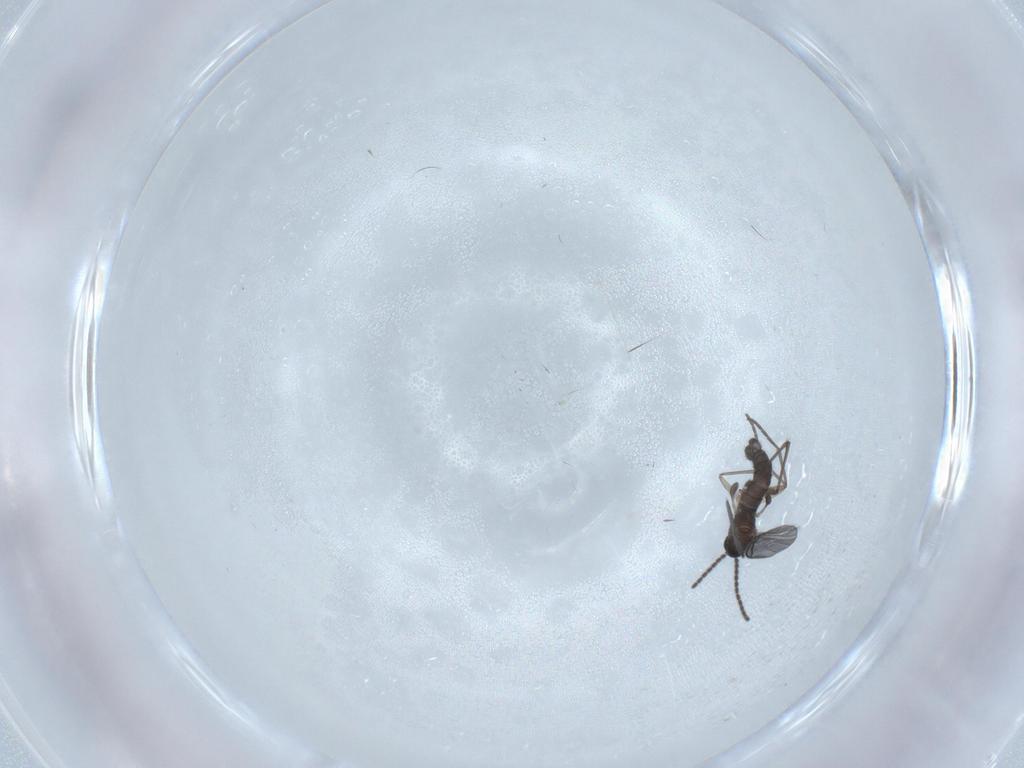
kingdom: Animalia
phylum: Arthropoda
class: Insecta
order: Diptera
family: Sciaridae
